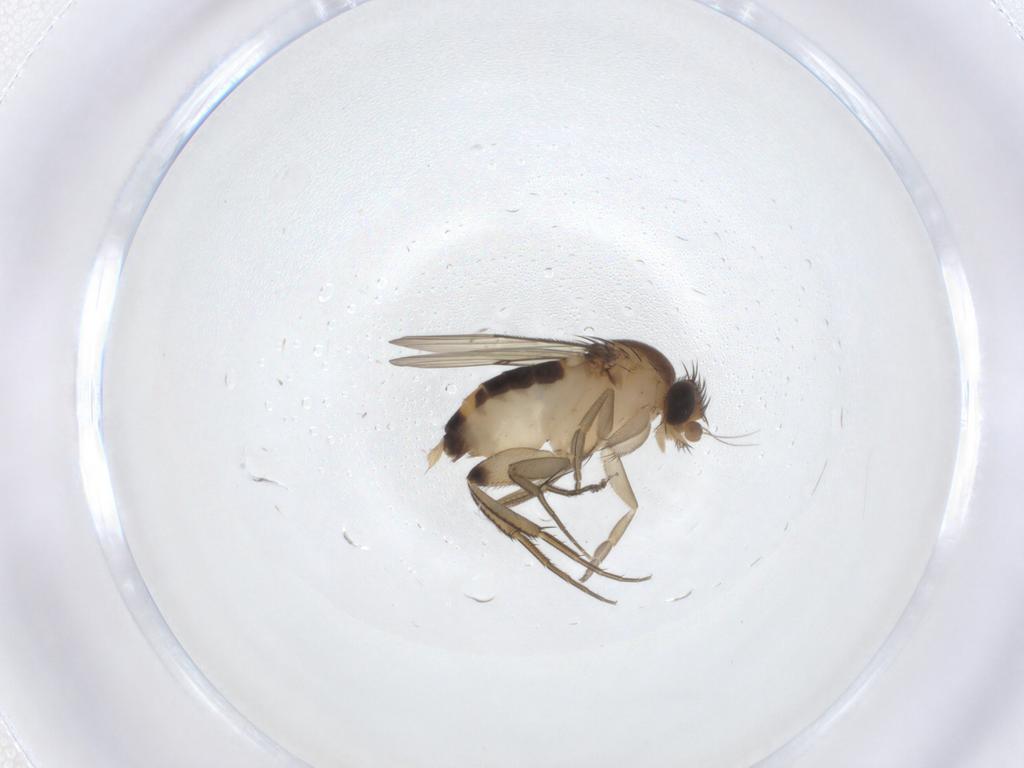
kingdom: Animalia
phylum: Arthropoda
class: Insecta
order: Diptera
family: Phoridae
